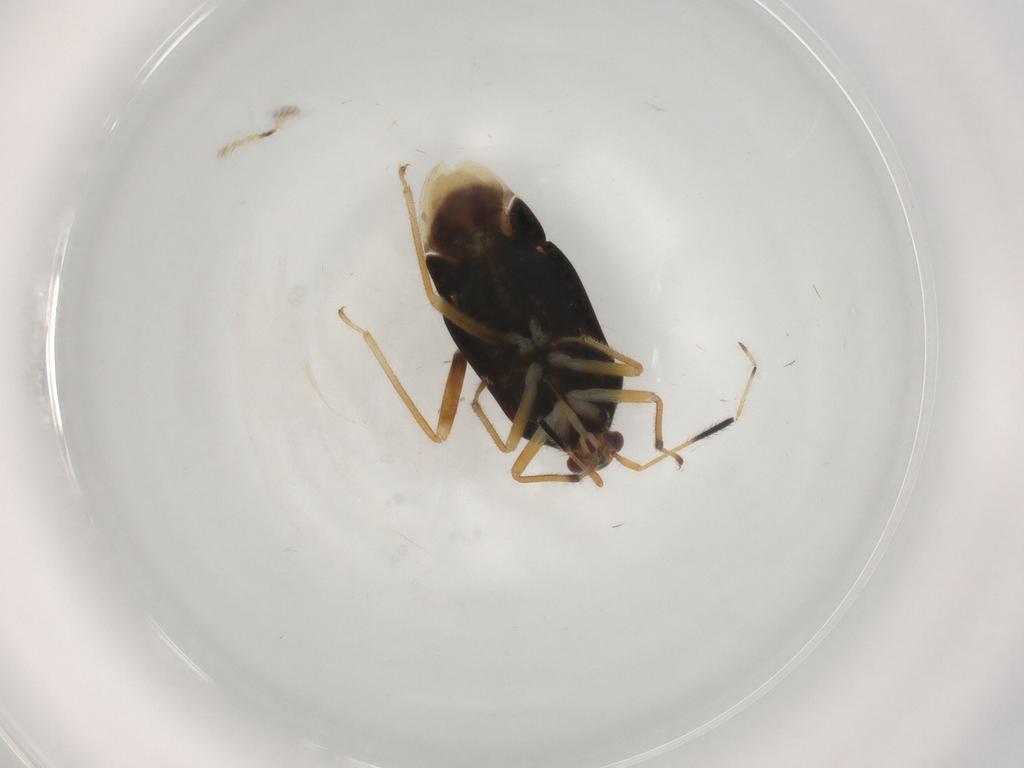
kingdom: Animalia
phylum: Arthropoda
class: Insecta
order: Hemiptera
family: Miridae
